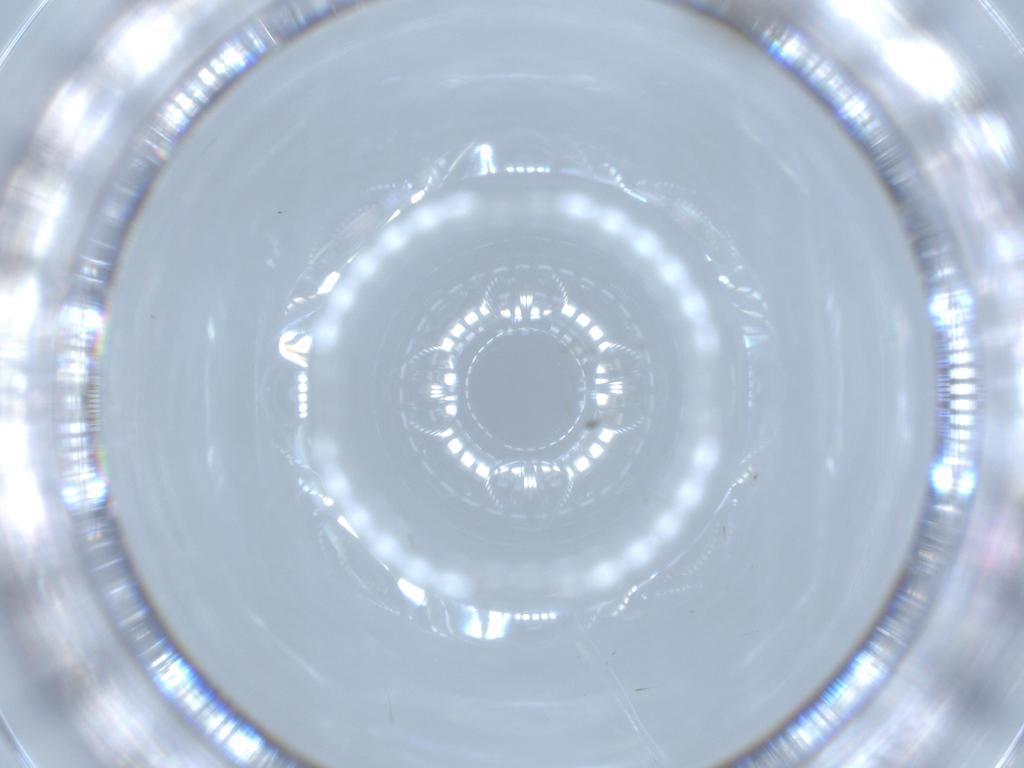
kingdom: Animalia
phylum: Arthropoda
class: Insecta
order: Diptera
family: Cecidomyiidae
